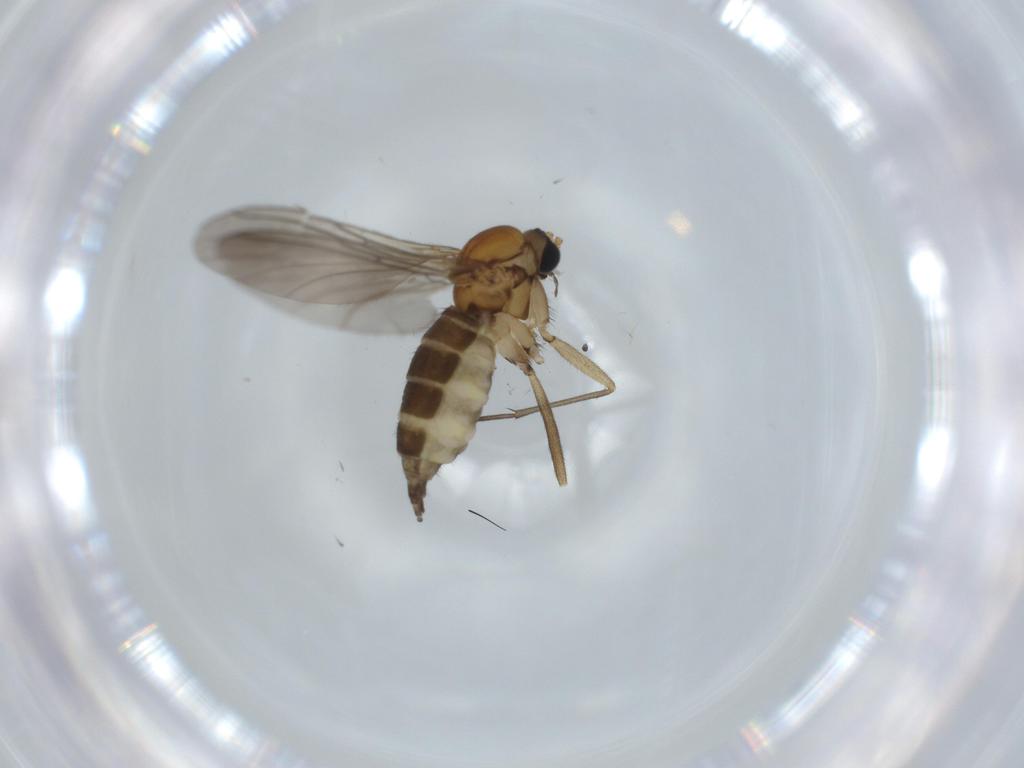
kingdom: Animalia
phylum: Arthropoda
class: Insecta
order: Diptera
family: Sciaridae
